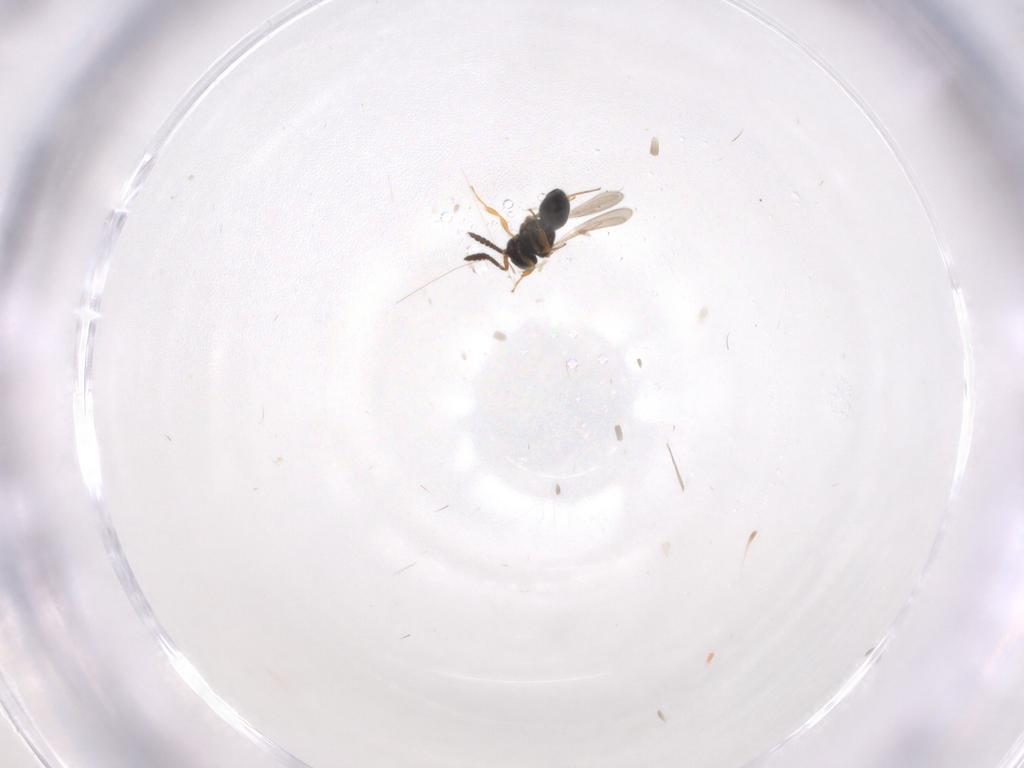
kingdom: Animalia
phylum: Arthropoda
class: Insecta
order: Hymenoptera
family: Scelionidae
